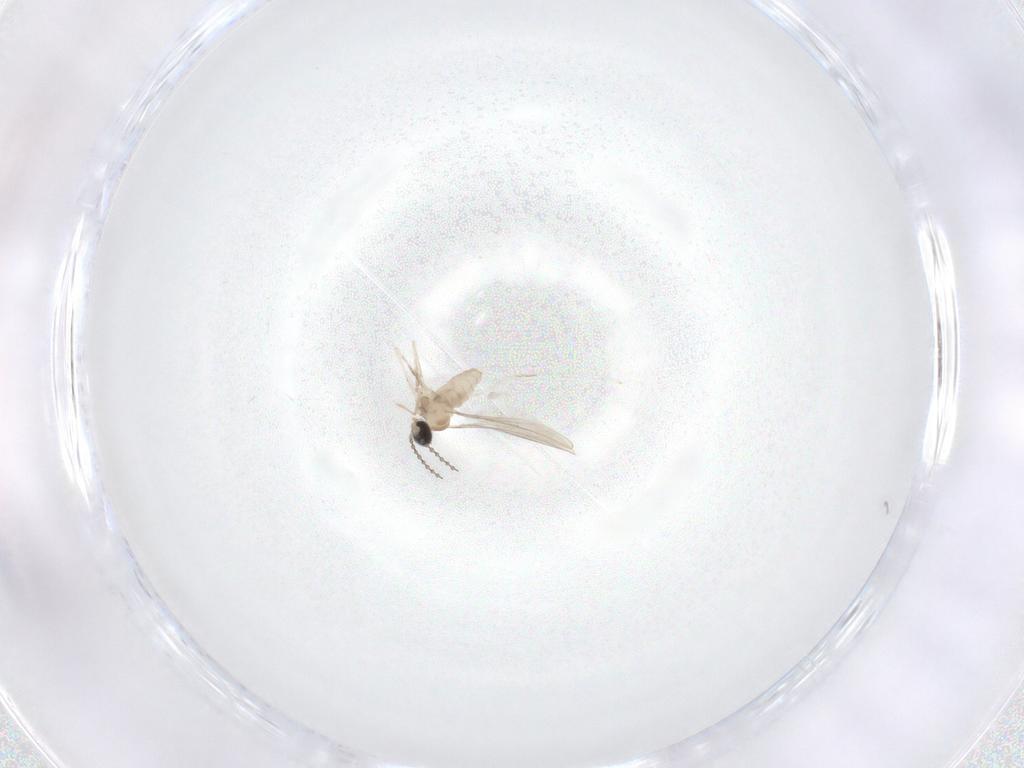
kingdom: Animalia
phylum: Arthropoda
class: Insecta
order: Diptera
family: Cecidomyiidae
